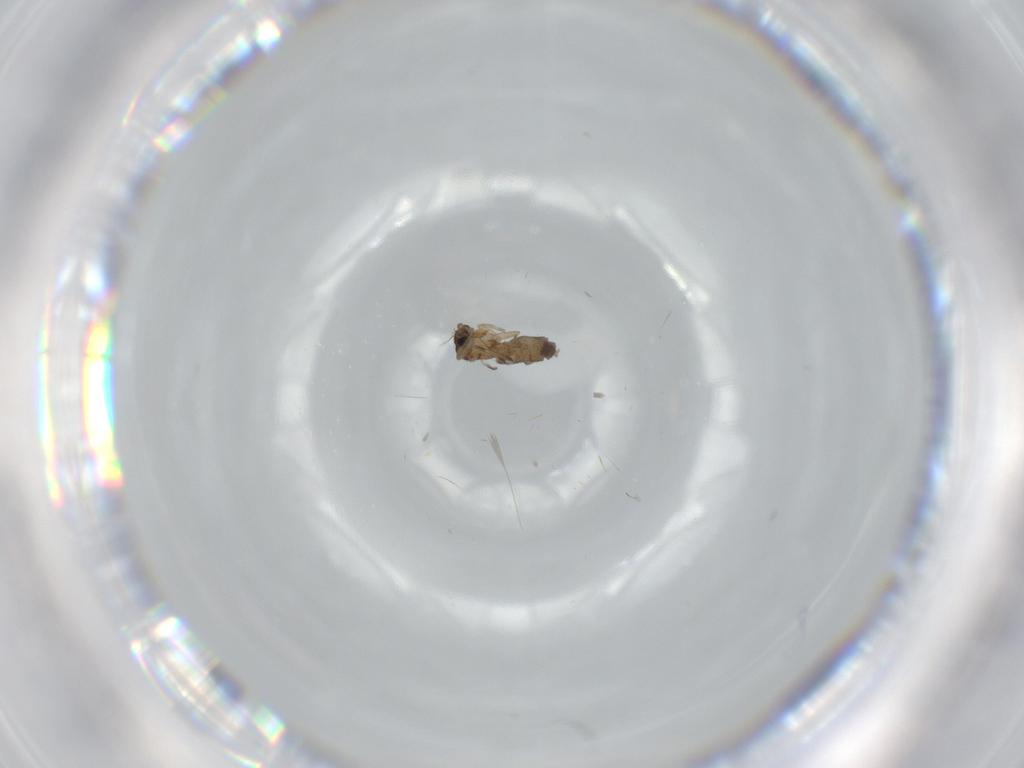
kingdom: Animalia
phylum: Arthropoda
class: Insecta
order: Diptera
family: Phoridae
